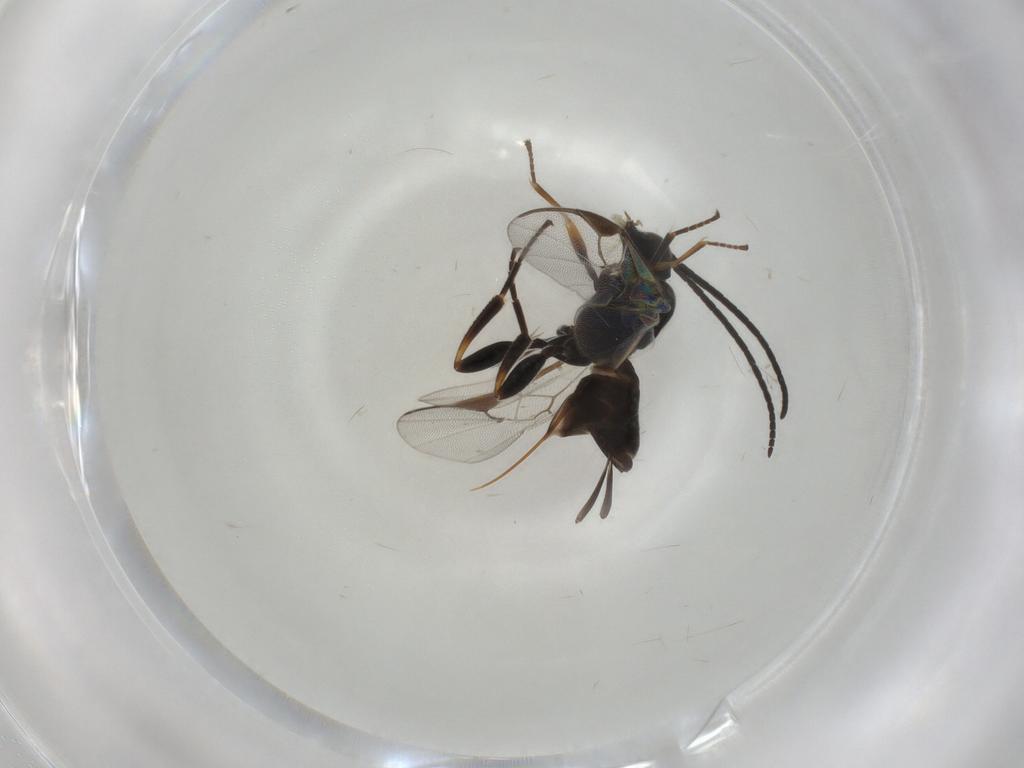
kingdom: Animalia
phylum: Arthropoda
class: Insecta
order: Hymenoptera
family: Braconidae
